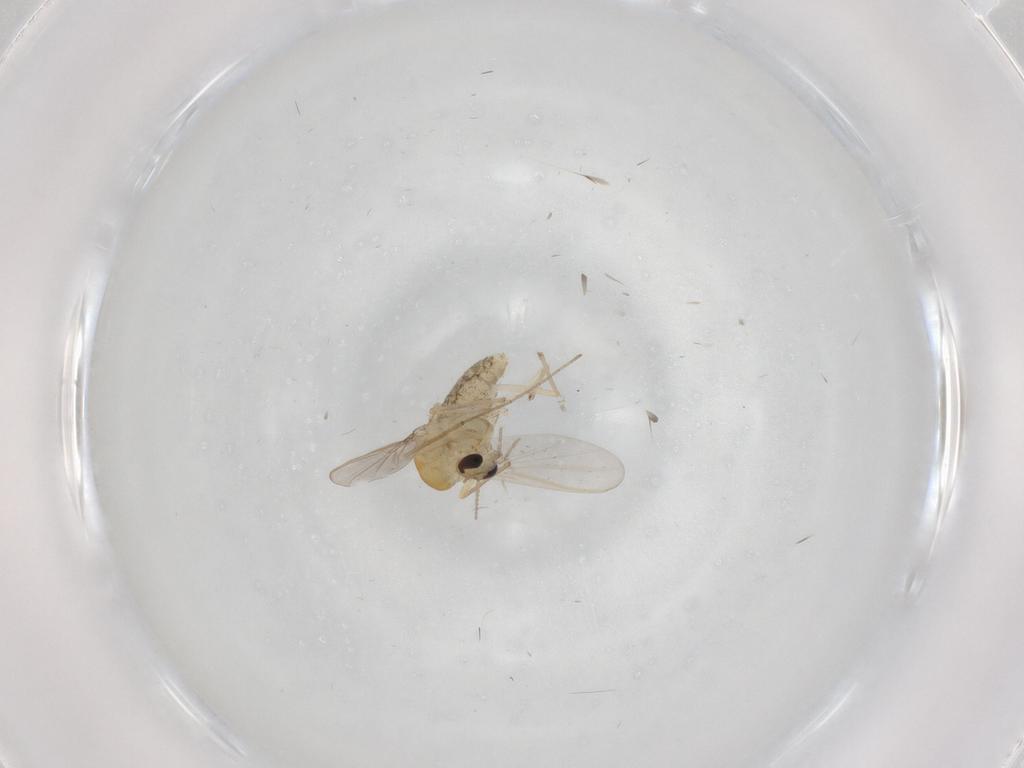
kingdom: Animalia
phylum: Arthropoda
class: Insecta
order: Diptera
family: Chironomidae
